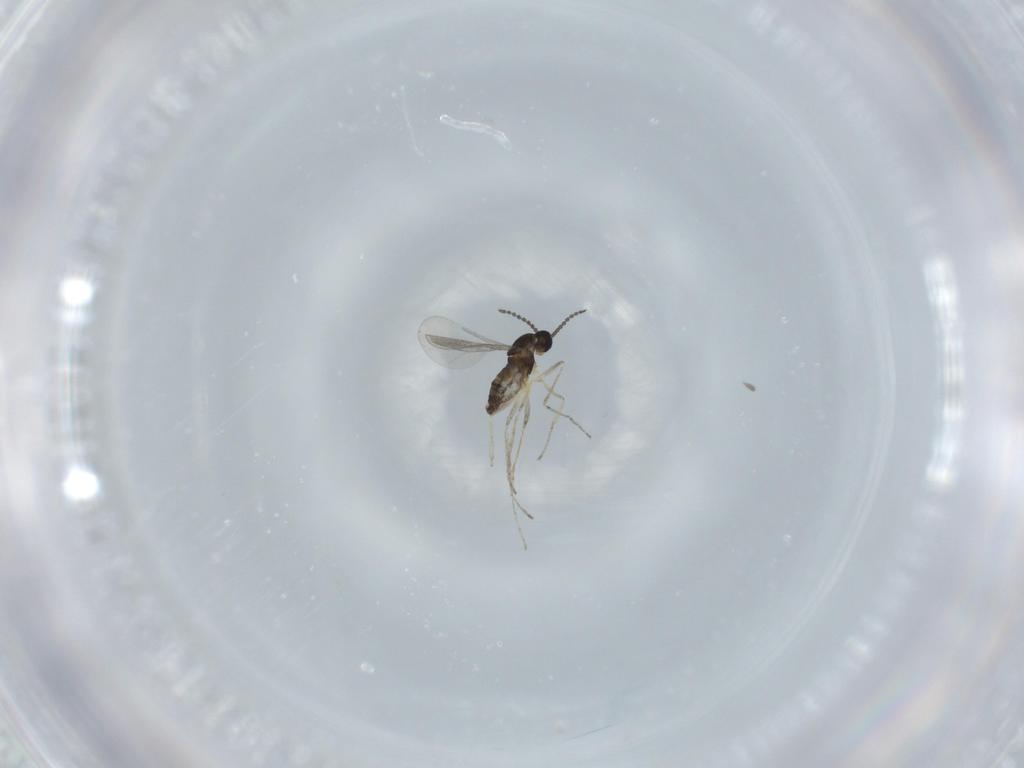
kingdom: Animalia
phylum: Arthropoda
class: Insecta
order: Diptera
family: Cecidomyiidae
